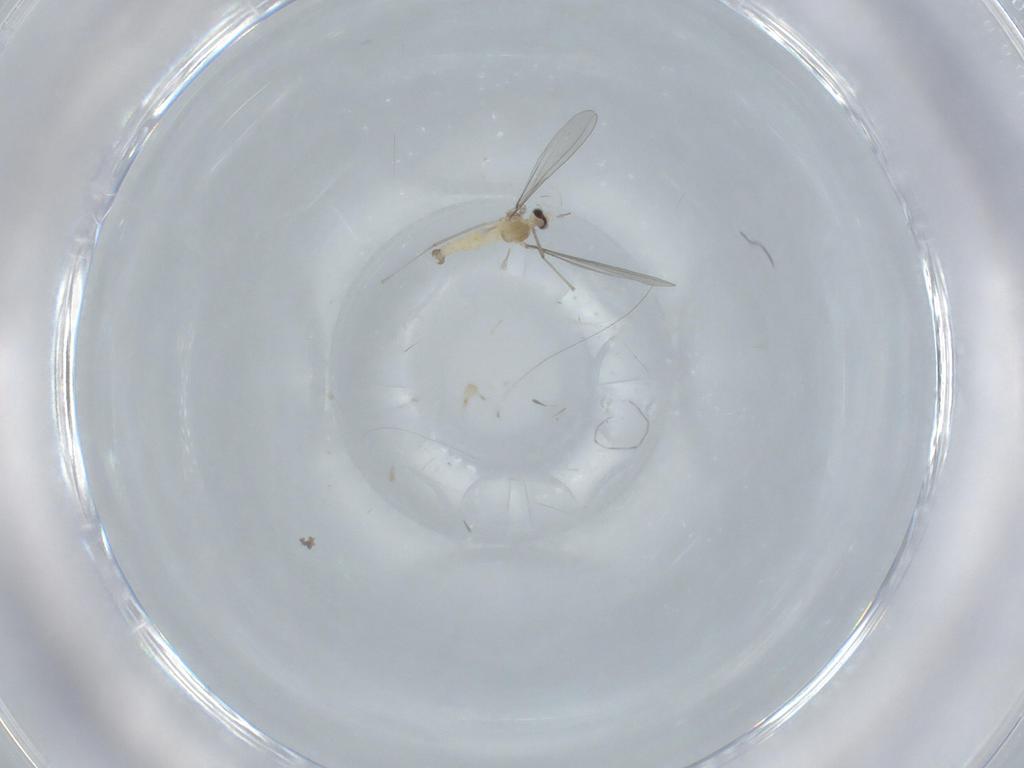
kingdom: Animalia
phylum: Arthropoda
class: Insecta
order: Diptera
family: Cecidomyiidae
